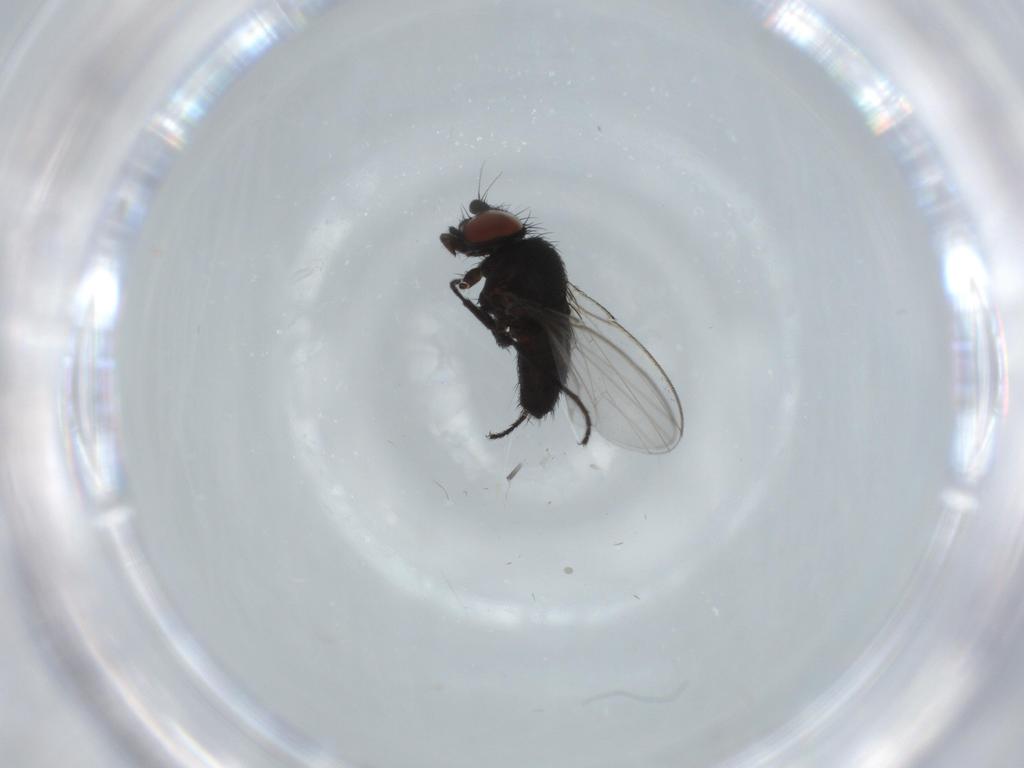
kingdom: Animalia
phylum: Arthropoda
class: Insecta
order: Diptera
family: Milichiidae
